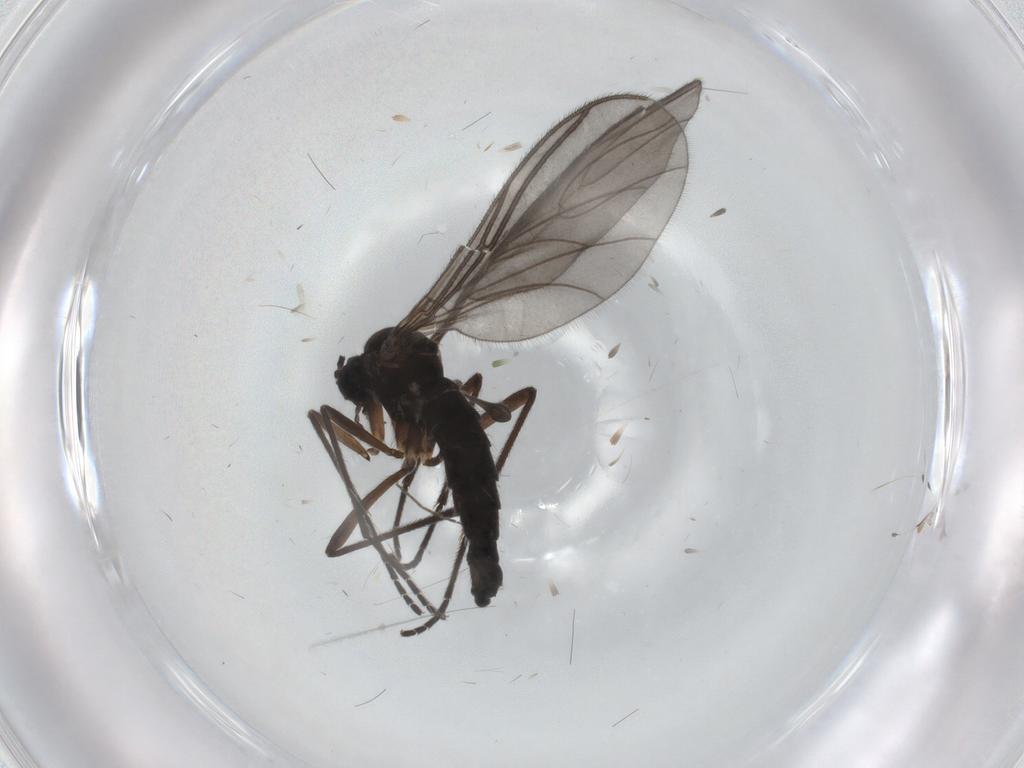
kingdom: Animalia
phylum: Arthropoda
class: Insecta
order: Diptera
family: Sciaridae
